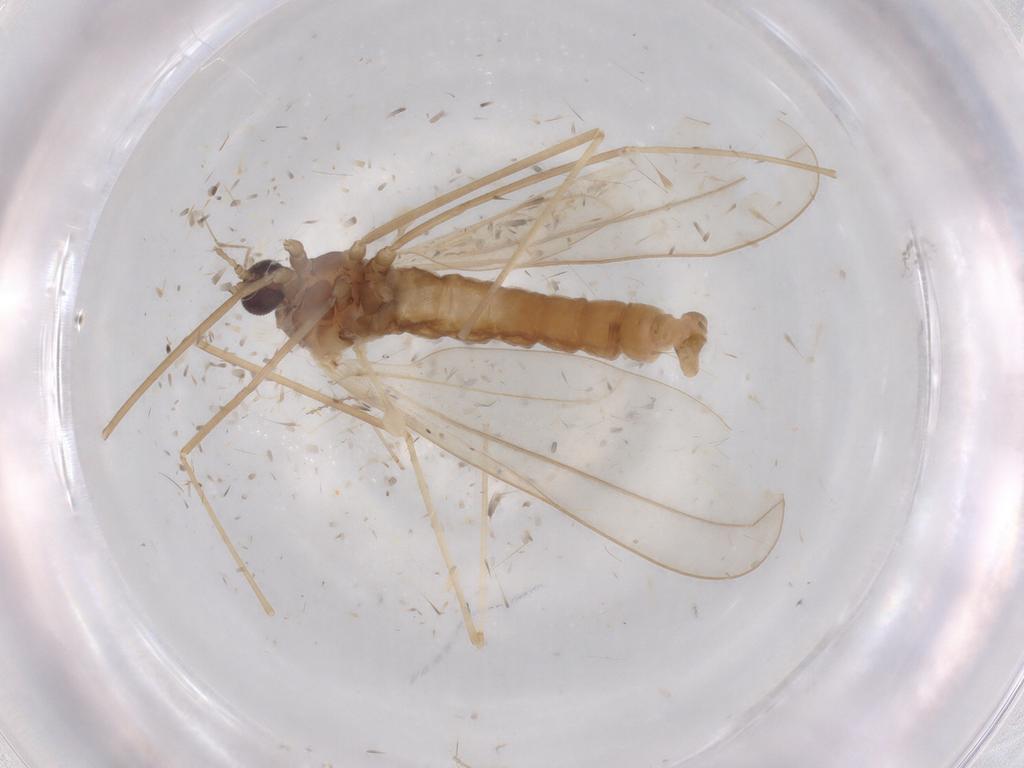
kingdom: Animalia
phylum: Arthropoda
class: Insecta
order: Diptera
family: Cecidomyiidae
